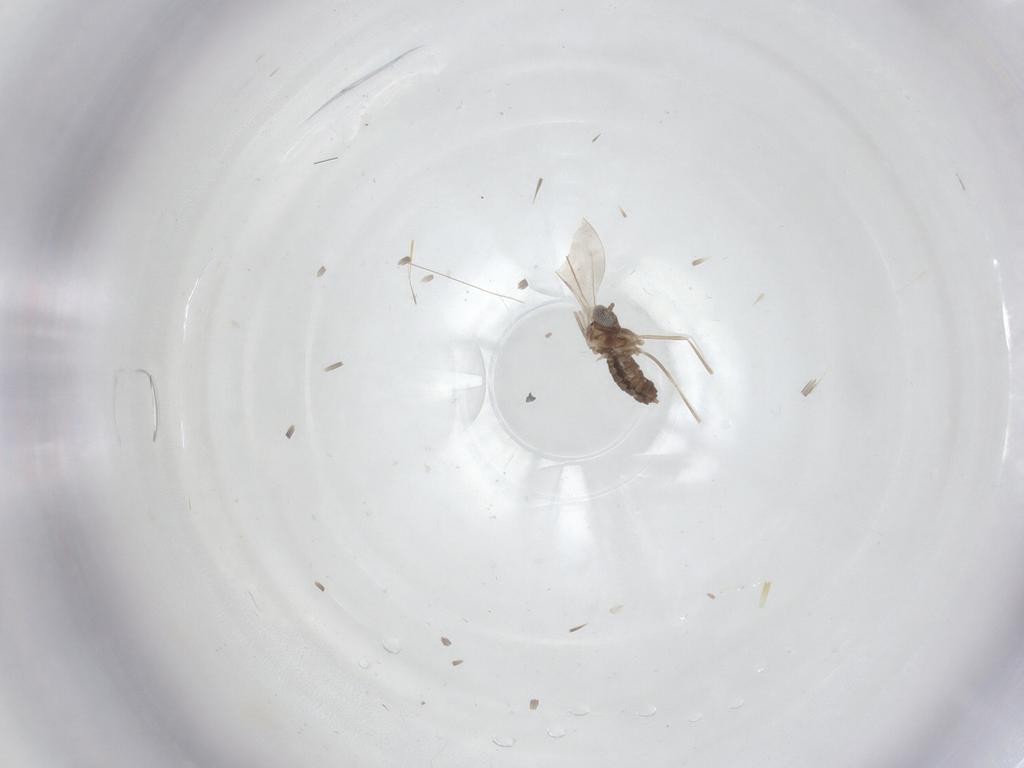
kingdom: Animalia
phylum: Arthropoda
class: Insecta
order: Diptera
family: Cecidomyiidae
